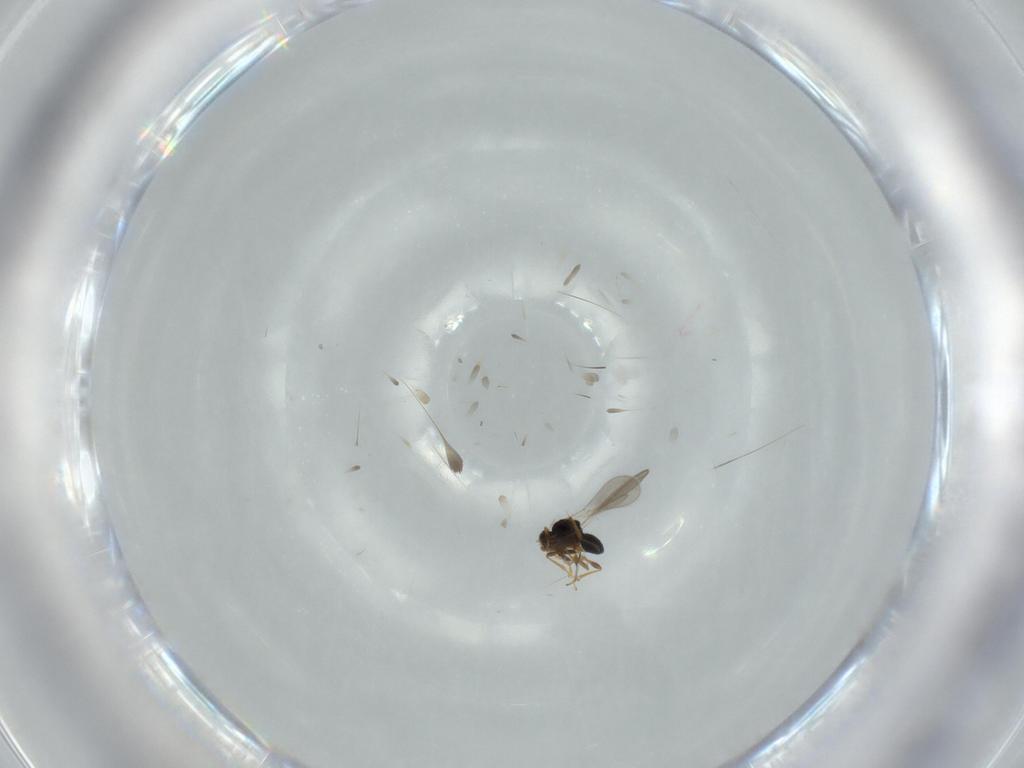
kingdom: Animalia
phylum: Arthropoda
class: Insecta
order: Hymenoptera
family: Platygastridae
